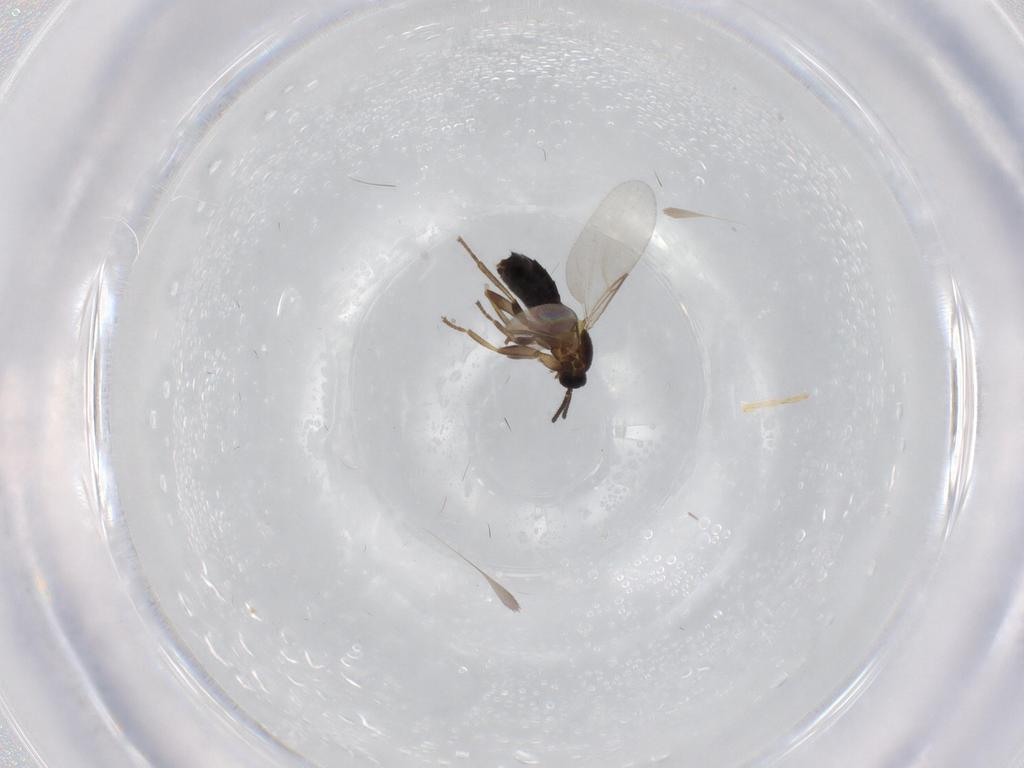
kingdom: Animalia
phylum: Arthropoda
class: Insecta
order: Diptera
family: Scatopsidae
